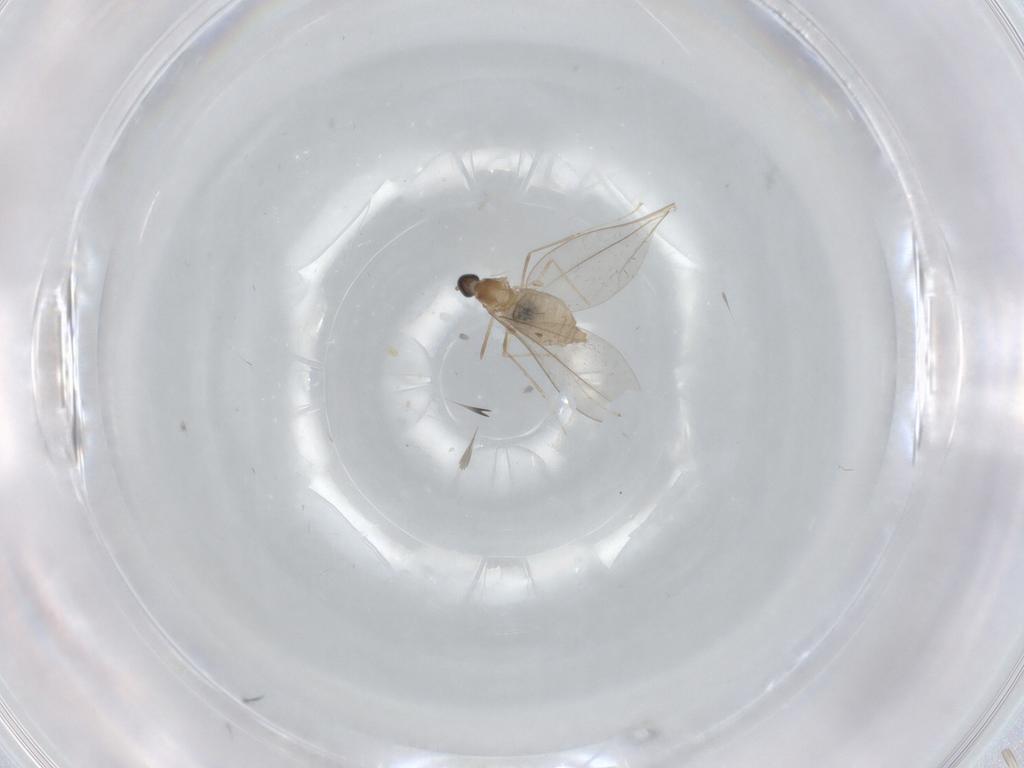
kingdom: Animalia
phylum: Arthropoda
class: Insecta
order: Diptera
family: Cecidomyiidae
